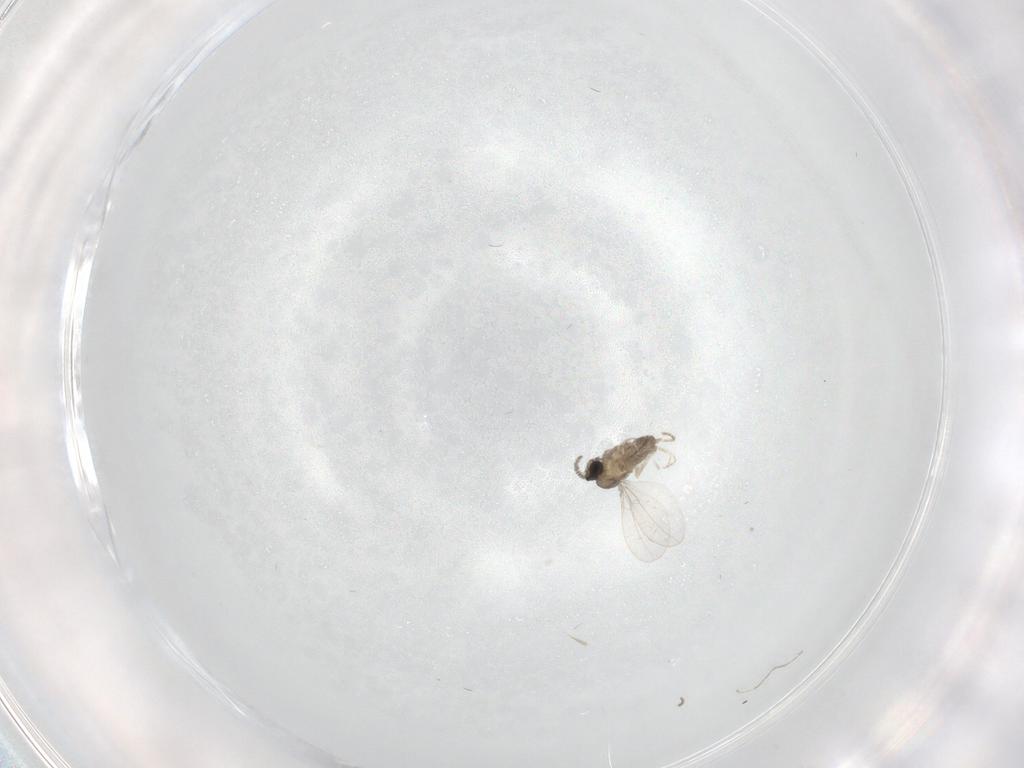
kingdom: Animalia
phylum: Arthropoda
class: Insecta
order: Diptera
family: Cecidomyiidae
